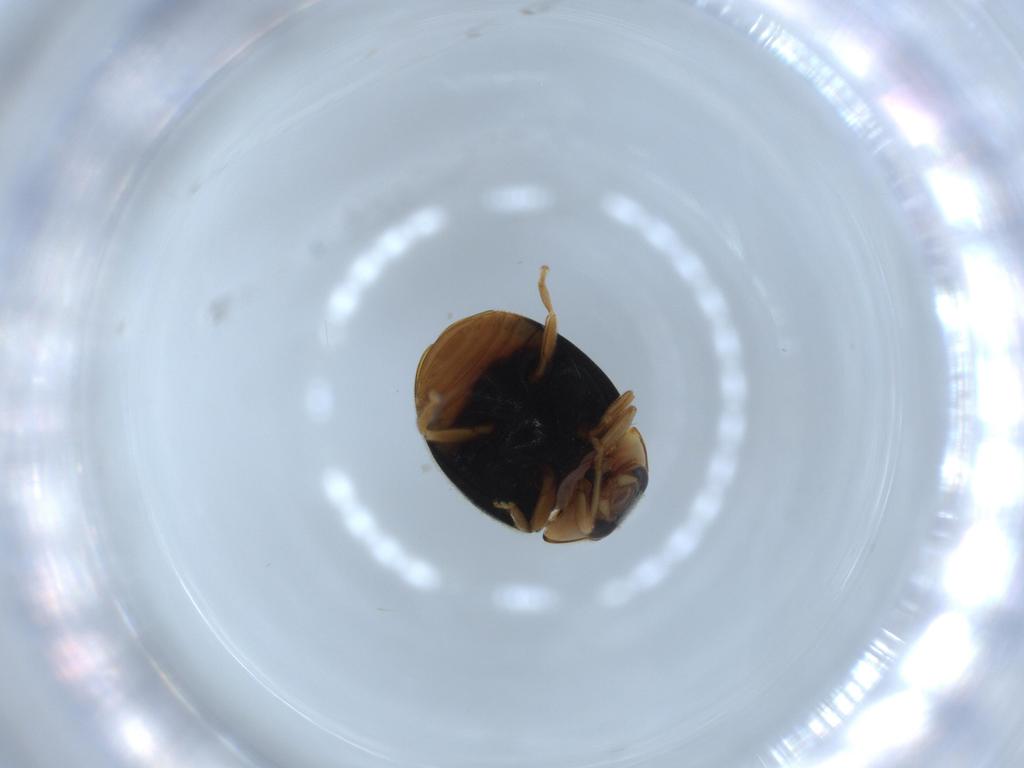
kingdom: Animalia
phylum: Arthropoda
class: Insecta
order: Coleoptera
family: Coccinellidae
